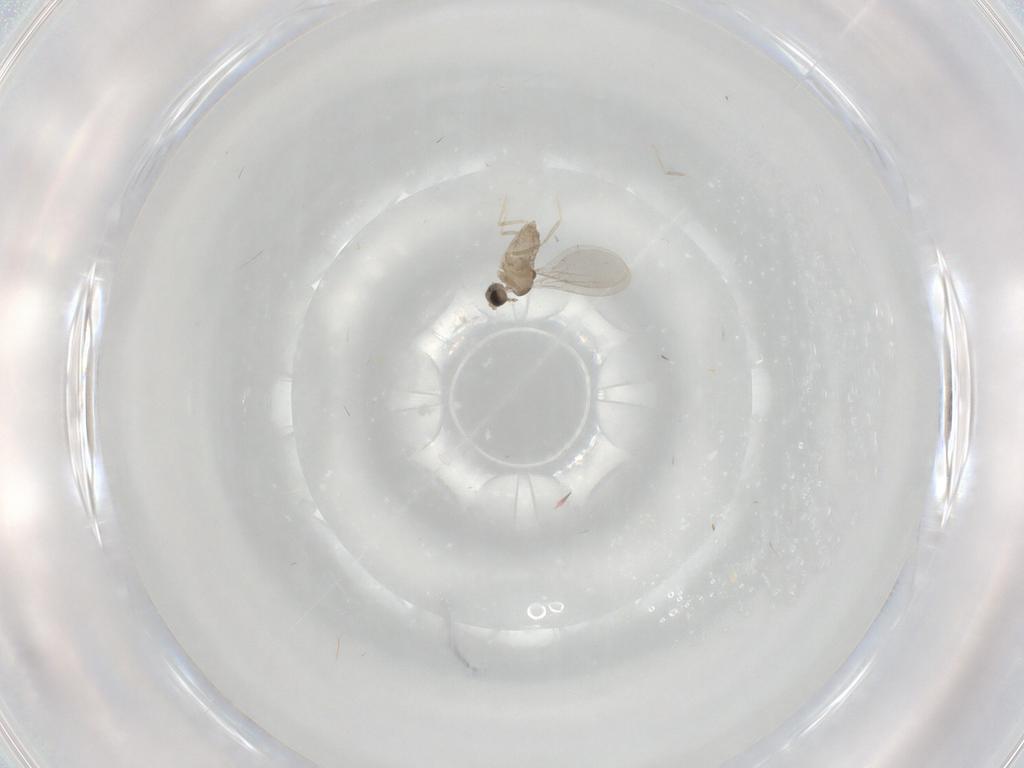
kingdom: Animalia
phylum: Arthropoda
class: Insecta
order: Diptera
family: Cecidomyiidae
